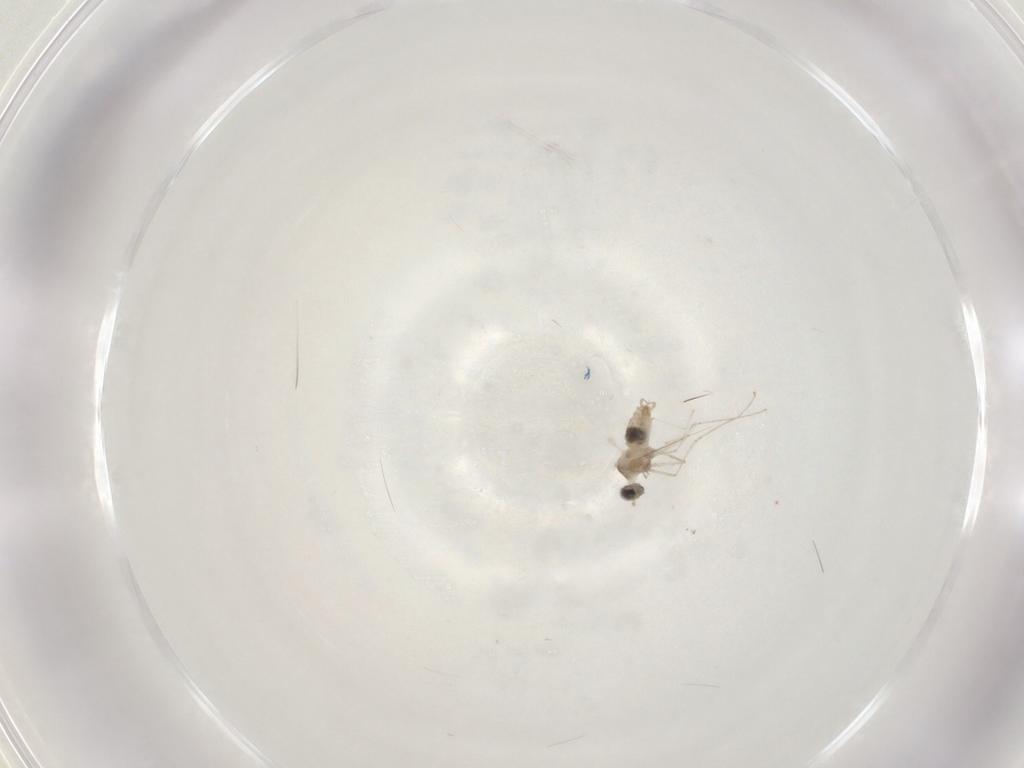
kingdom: Animalia
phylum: Arthropoda
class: Insecta
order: Diptera
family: Cecidomyiidae
